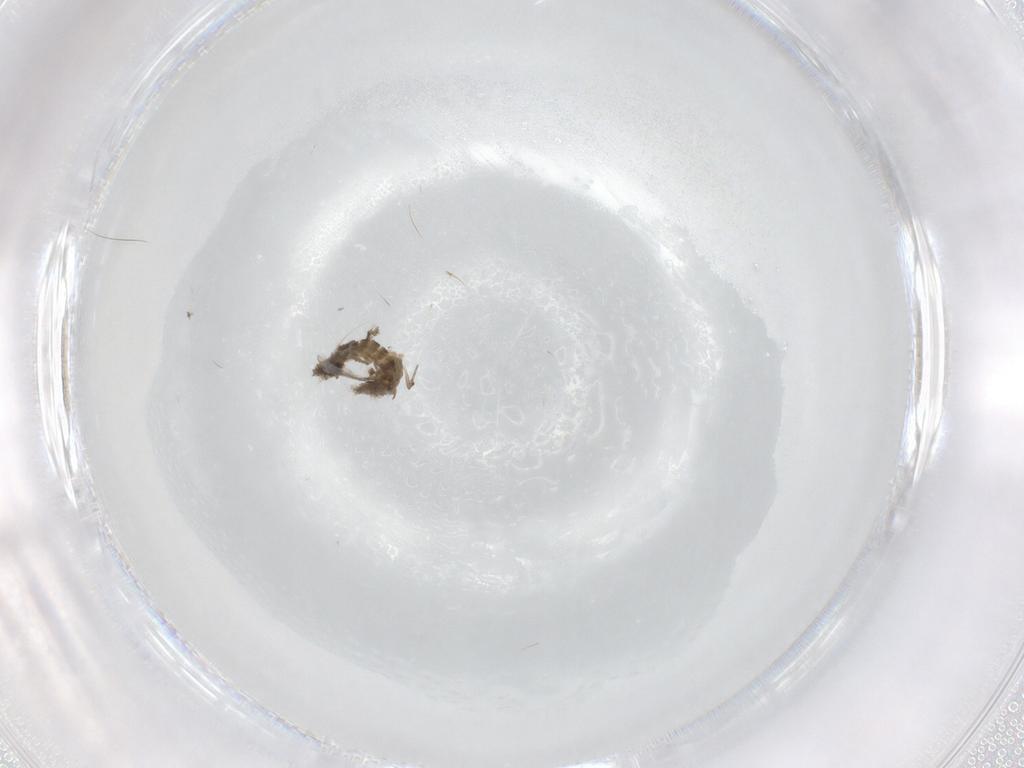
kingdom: Animalia
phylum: Arthropoda
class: Insecta
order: Diptera
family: Chironomidae
